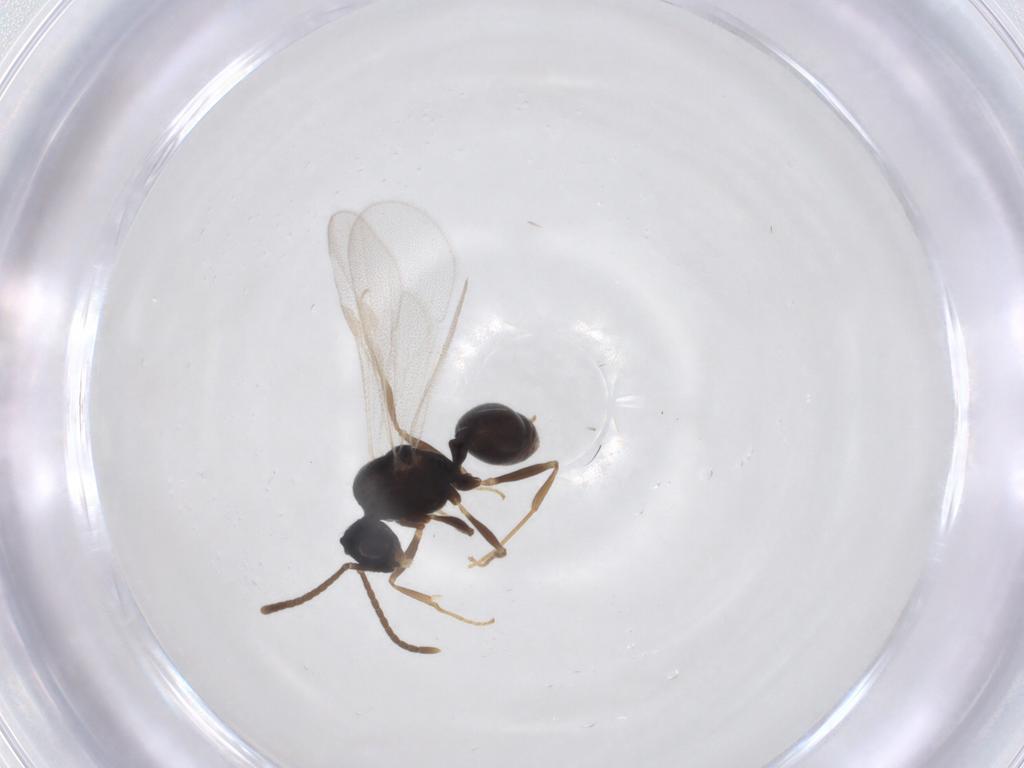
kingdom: Animalia
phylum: Arthropoda
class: Insecta
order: Hymenoptera
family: Formicidae
